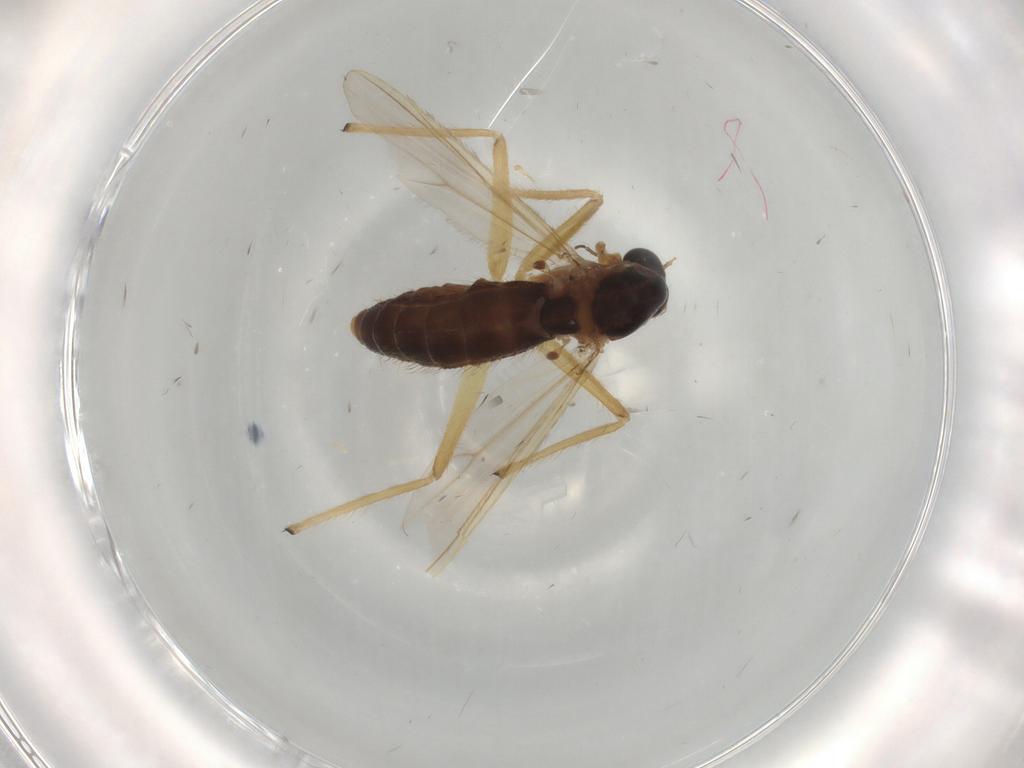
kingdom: Animalia
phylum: Arthropoda
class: Insecta
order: Diptera
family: Chironomidae
